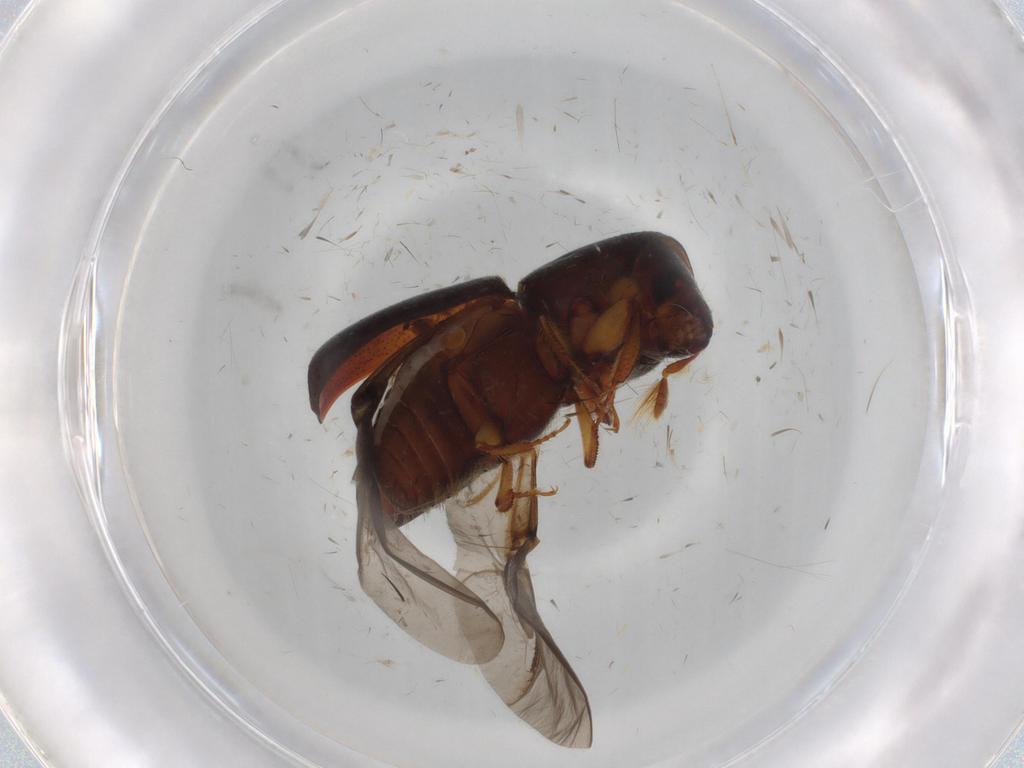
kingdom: Animalia
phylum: Arthropoda
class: Insecta
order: Coleoptera
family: Curculionidae
